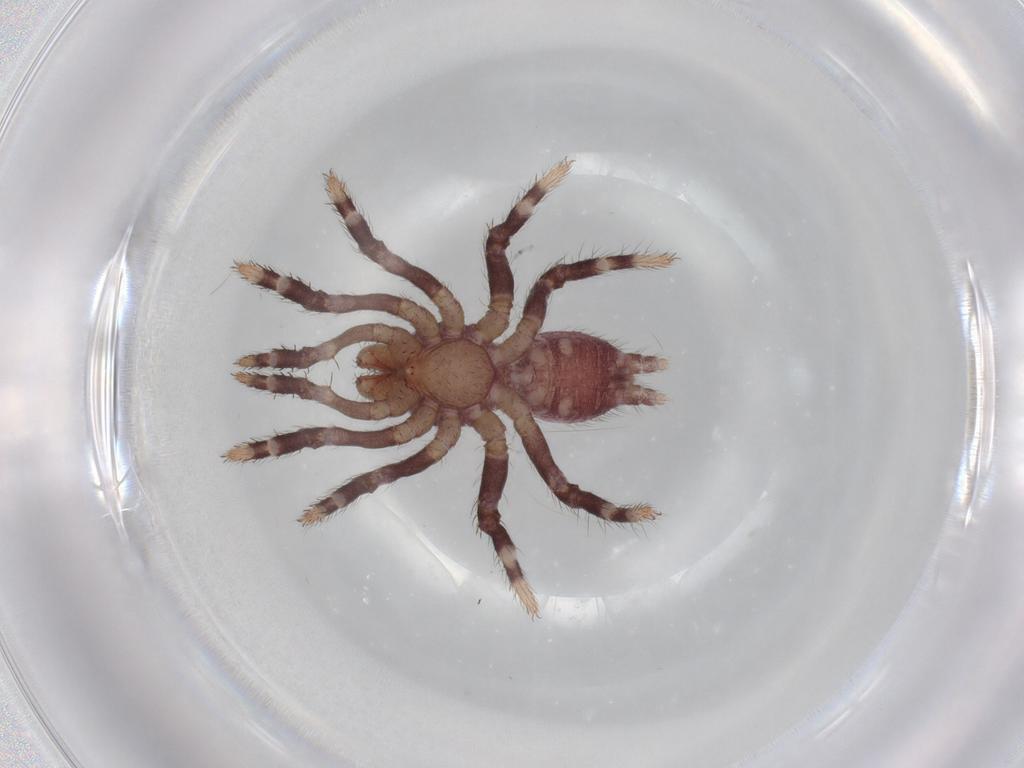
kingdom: Animalia
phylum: Arthropoda
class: Arachnida
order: Araneae
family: Halonoproctidae
